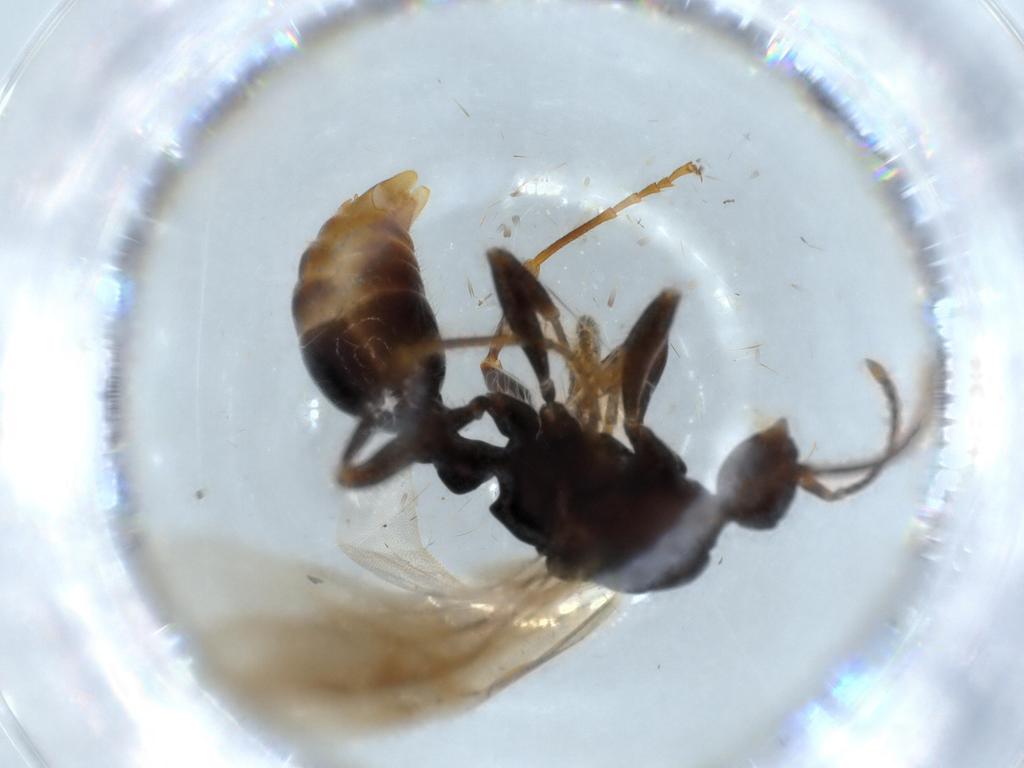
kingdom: Animalia
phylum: Arthropoda
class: Insecta
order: Hymenoptera
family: Formicidae
